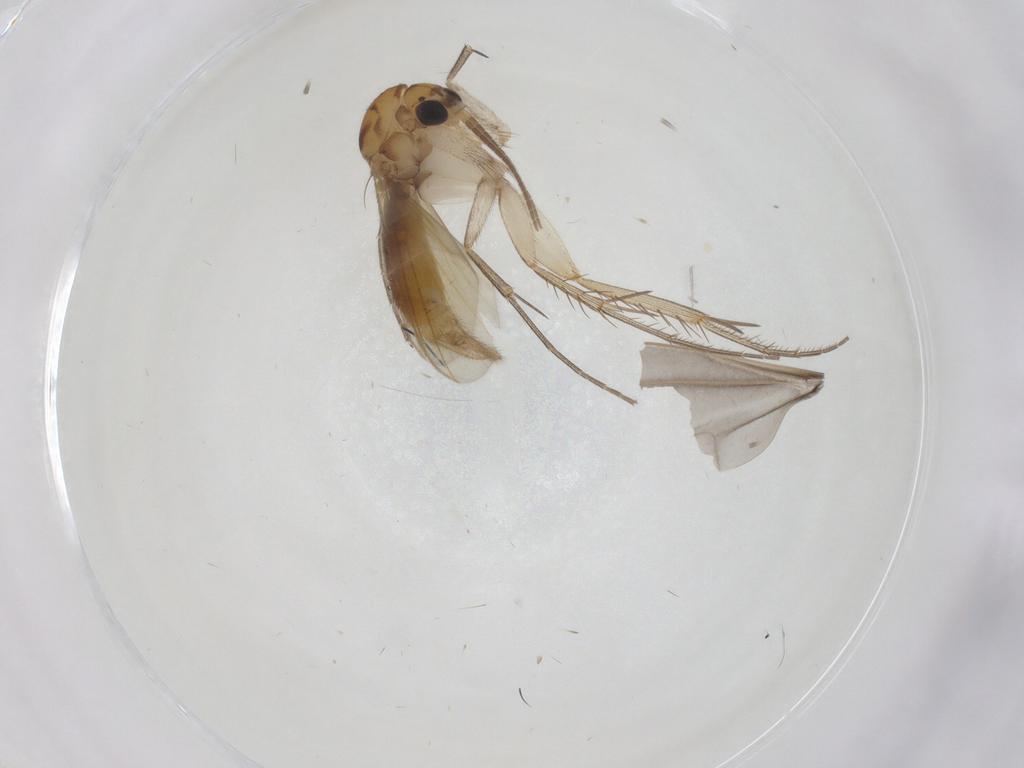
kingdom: Animalia
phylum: Arthropoda
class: Insecta
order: Diptera
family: Mycetophilidae
